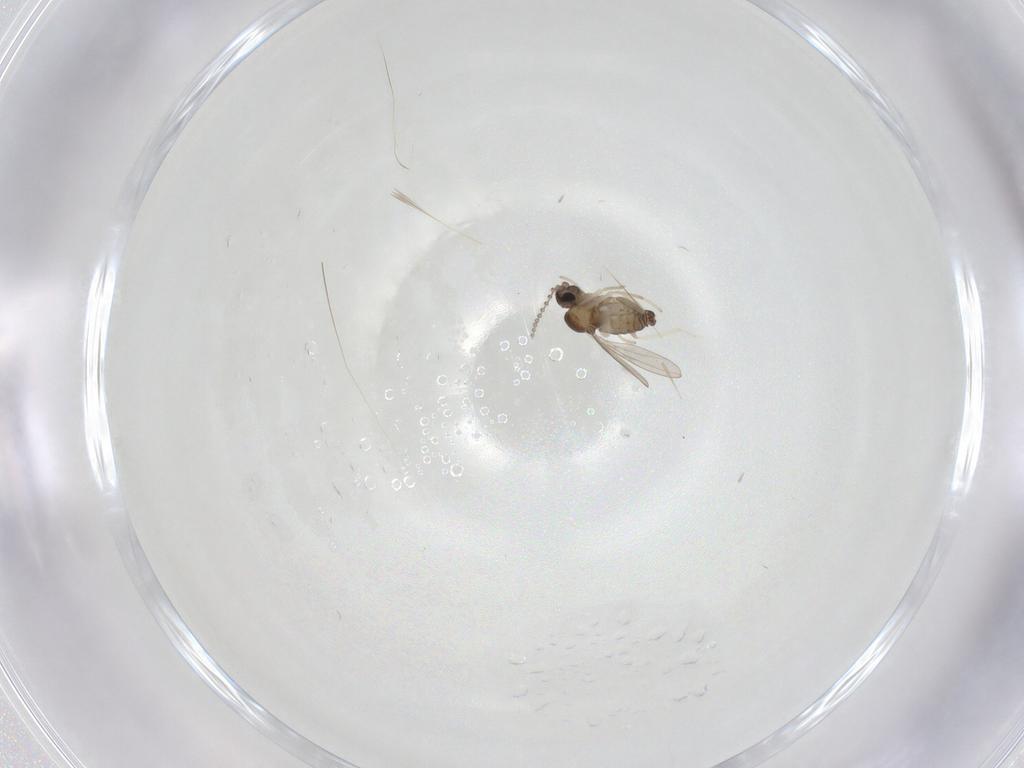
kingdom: Animalia
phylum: Arthropoda
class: Insecta
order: Diptera
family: Cecidomyiidae
